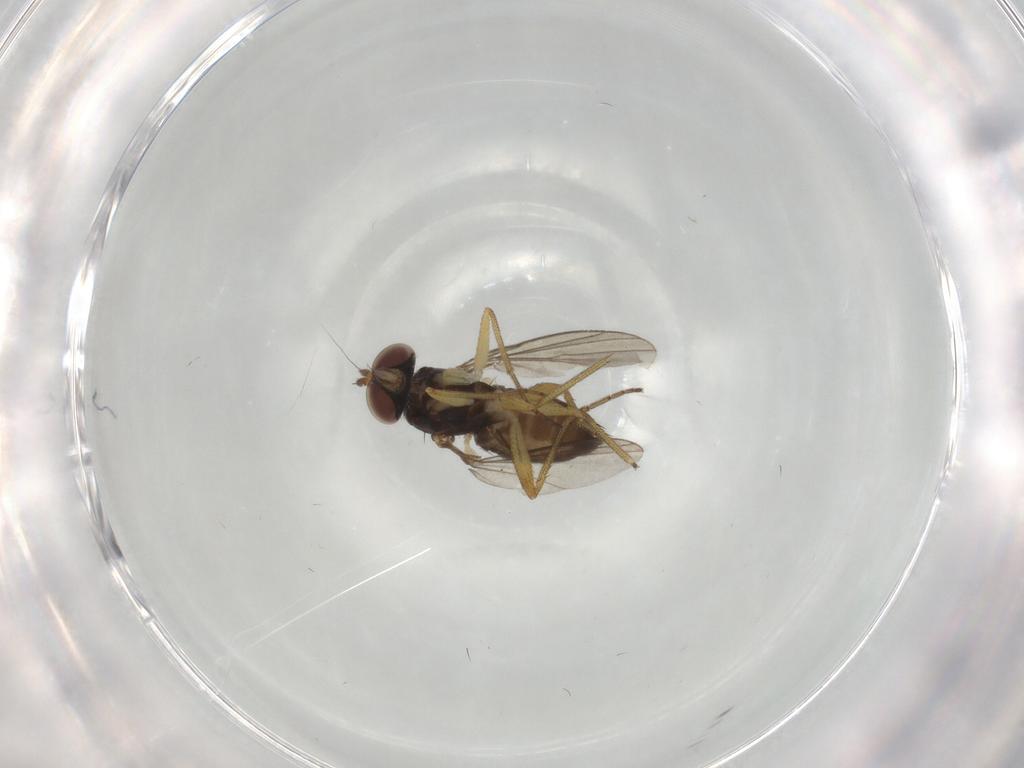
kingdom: Animalia
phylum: Arthropoda
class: Insecta
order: Diptera
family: Dolichopodidae
